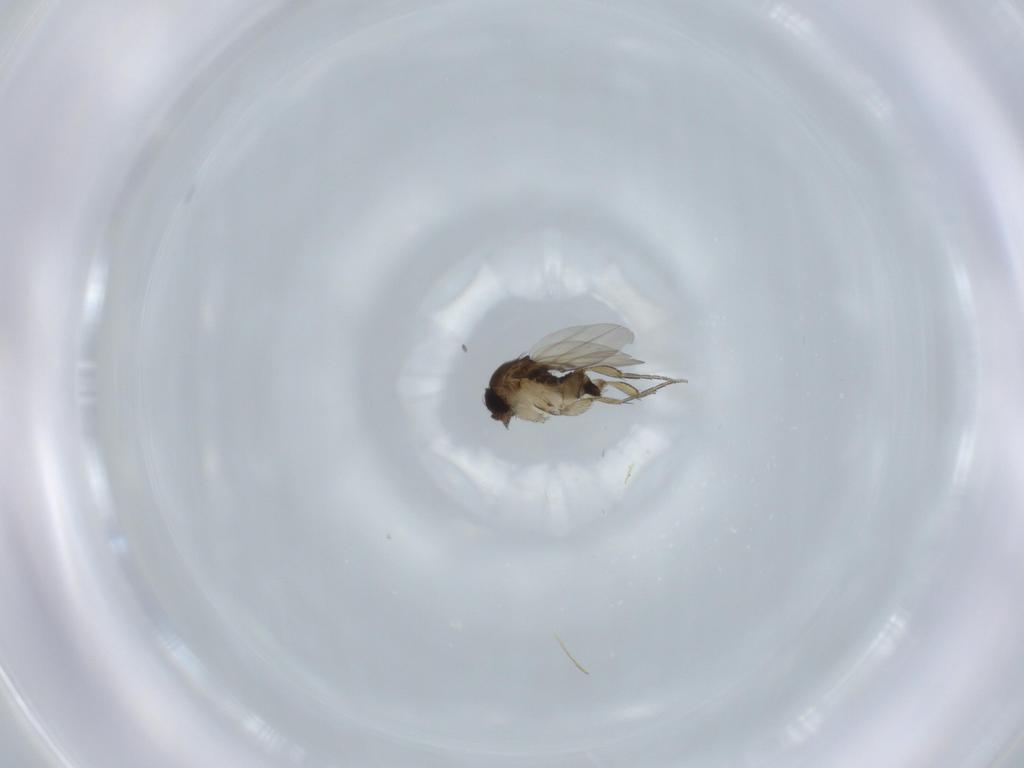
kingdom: Animalia
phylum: Arthropoda
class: Insecta
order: Diptera
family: Phoridae
